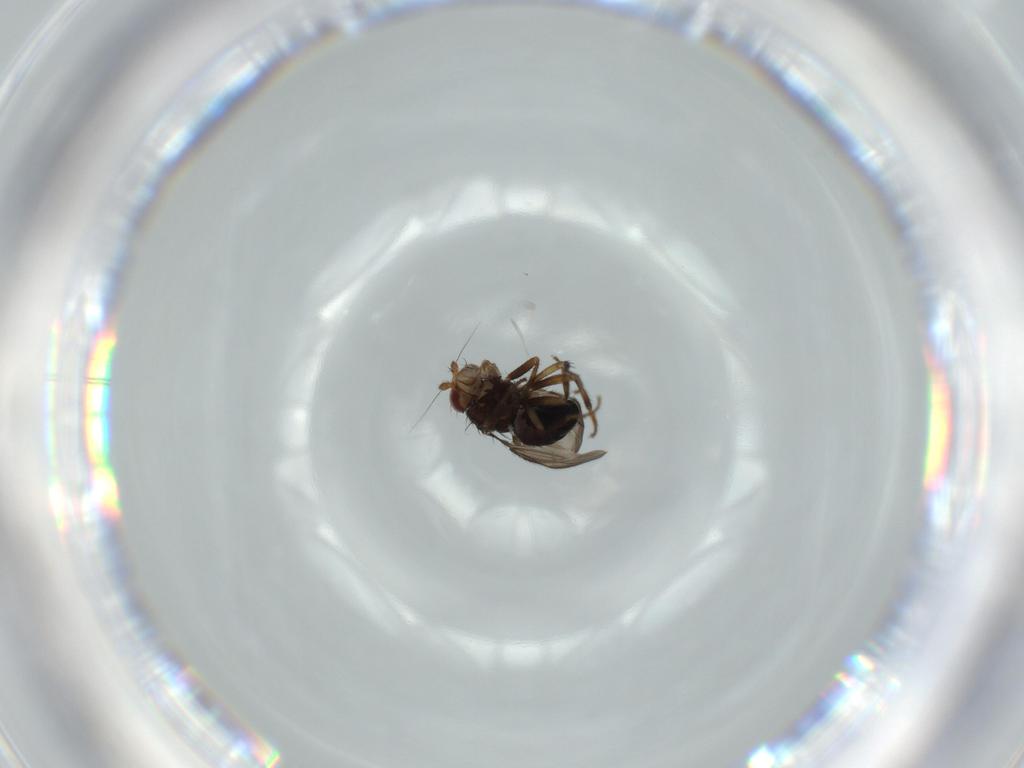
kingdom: Animalia
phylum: Arthropoda
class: Insecta
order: Diptera
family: Sphaeroceridae
